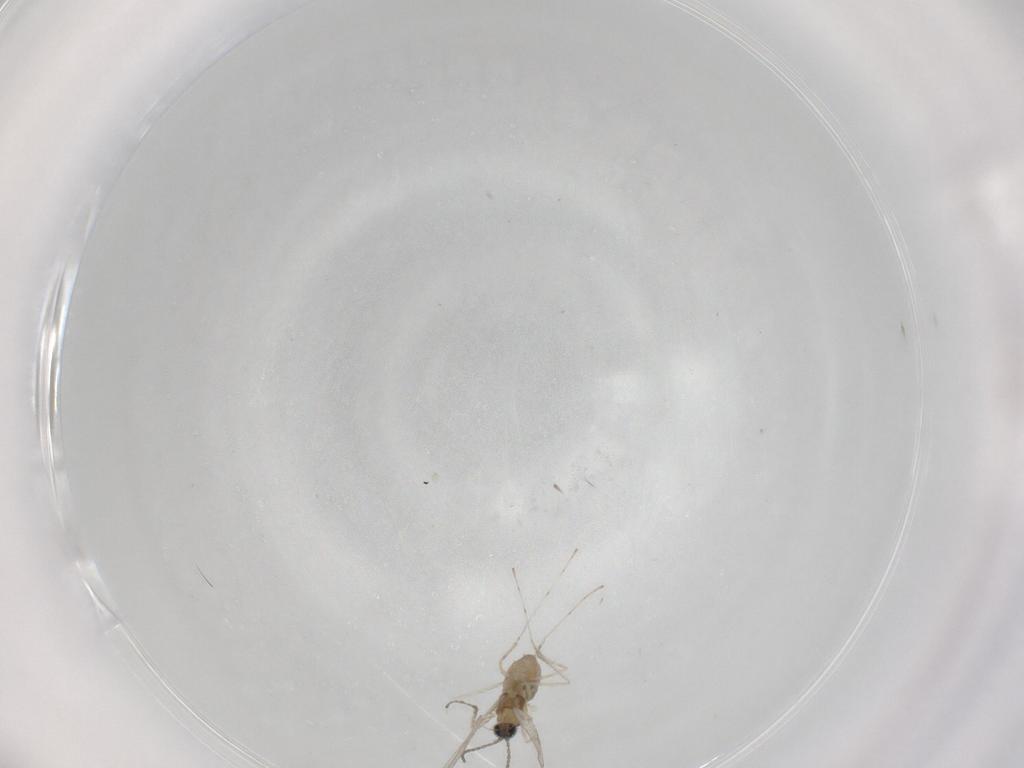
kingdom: Animalia
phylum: Arthropoda
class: Insecta
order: Diptera
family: Cecidomyiidae
